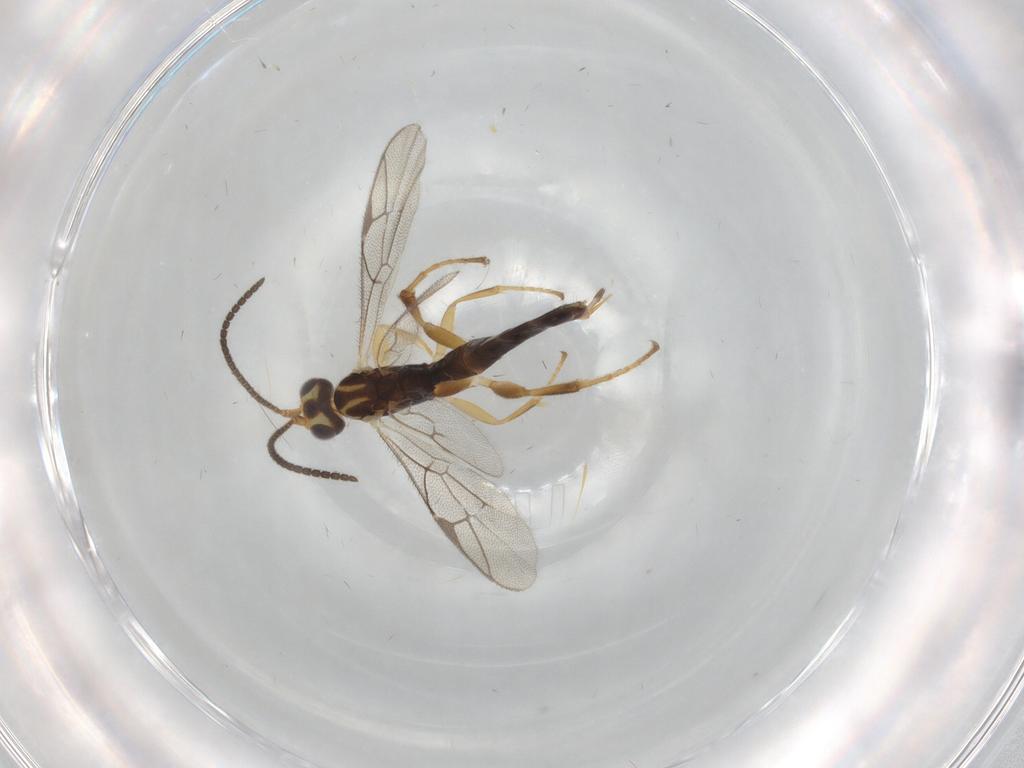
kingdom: Animalia
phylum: Arthropoda
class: Insecta
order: Hymenoptera
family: Ichneumonidae
